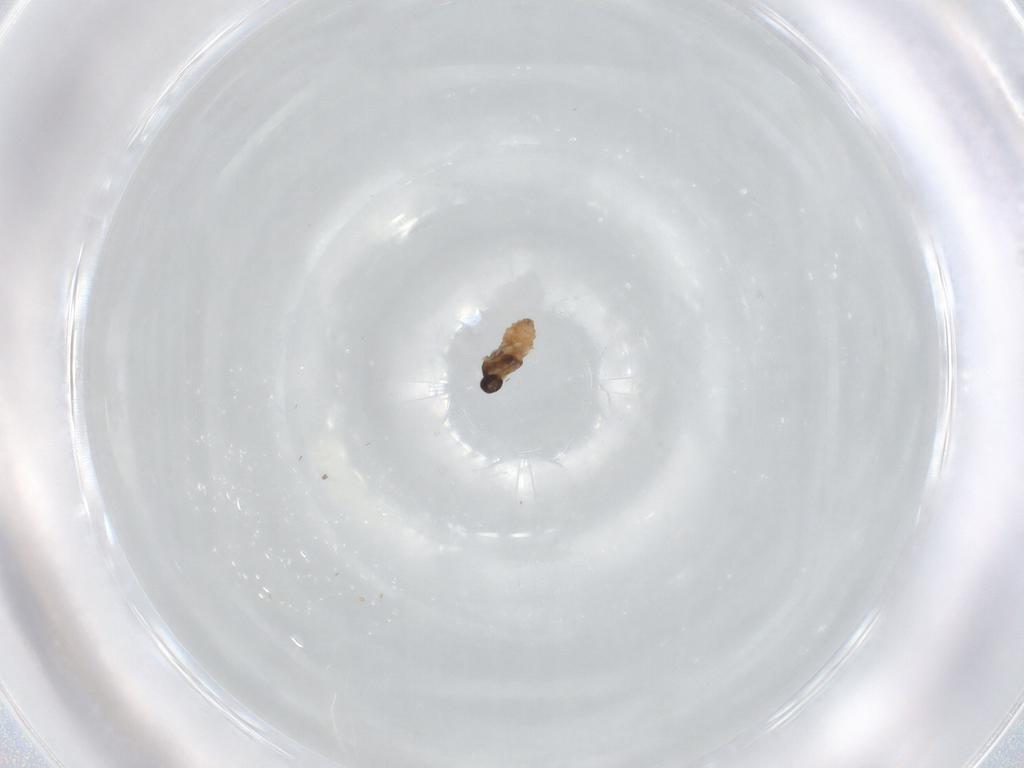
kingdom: Animalia
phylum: Arthropoda
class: Insecta
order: Diptera
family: Cecidomyiidae
